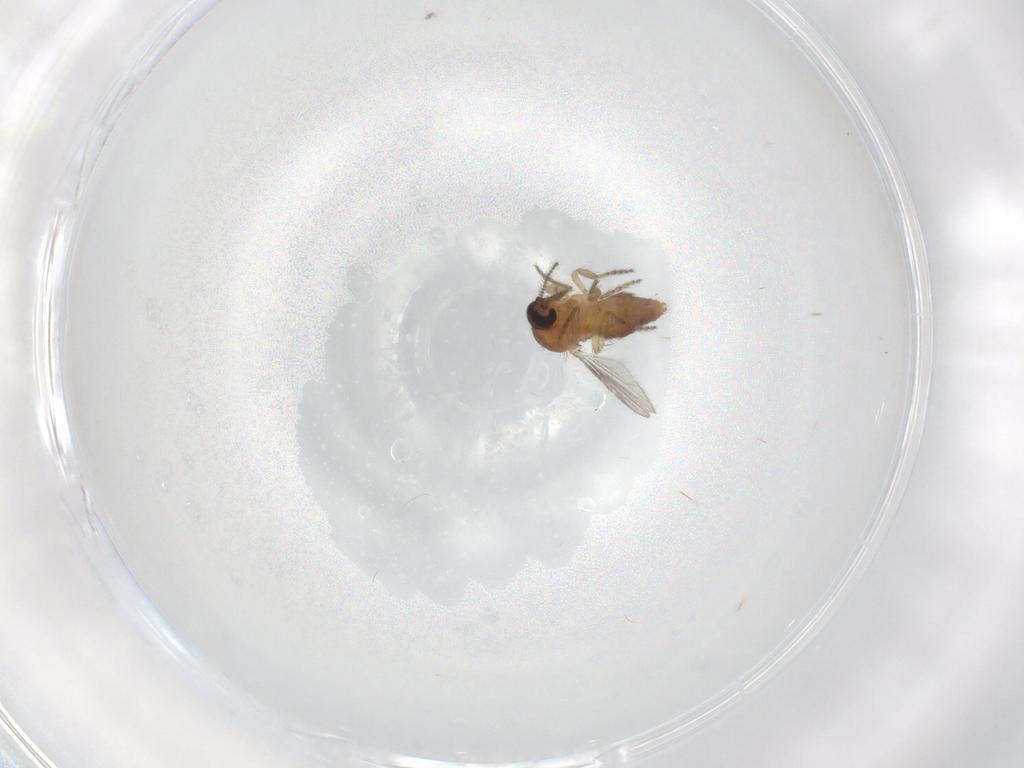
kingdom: Animalia
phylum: Arthropoda
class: Insecta
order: Diptera
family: Ceratopogonidae
